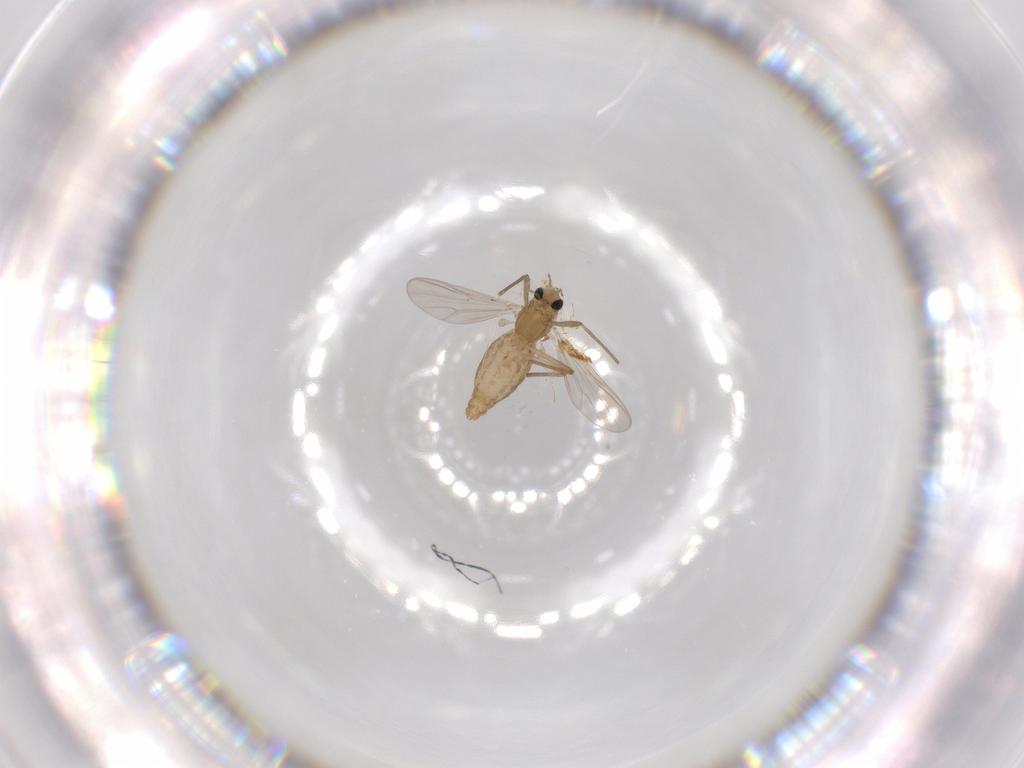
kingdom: Animalia
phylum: Arthropoda
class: Insecta
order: Diptera
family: Chironomidae
